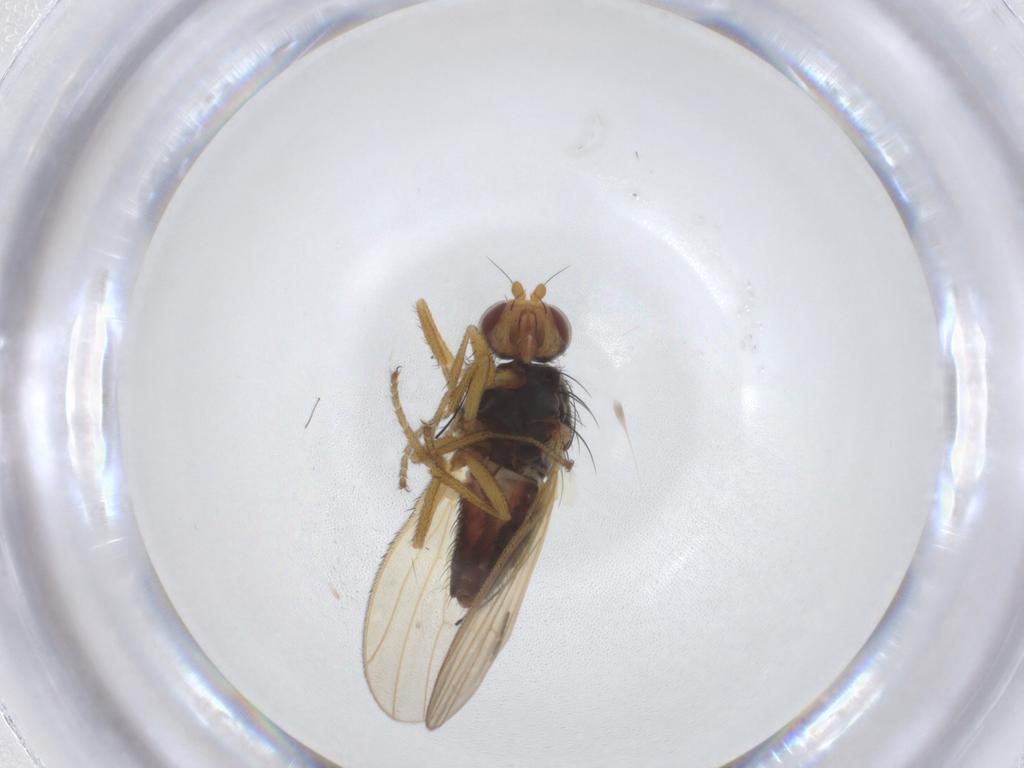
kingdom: Animalia
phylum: Arthropoda
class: Insecta
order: Diptera
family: Heleomyzidae
